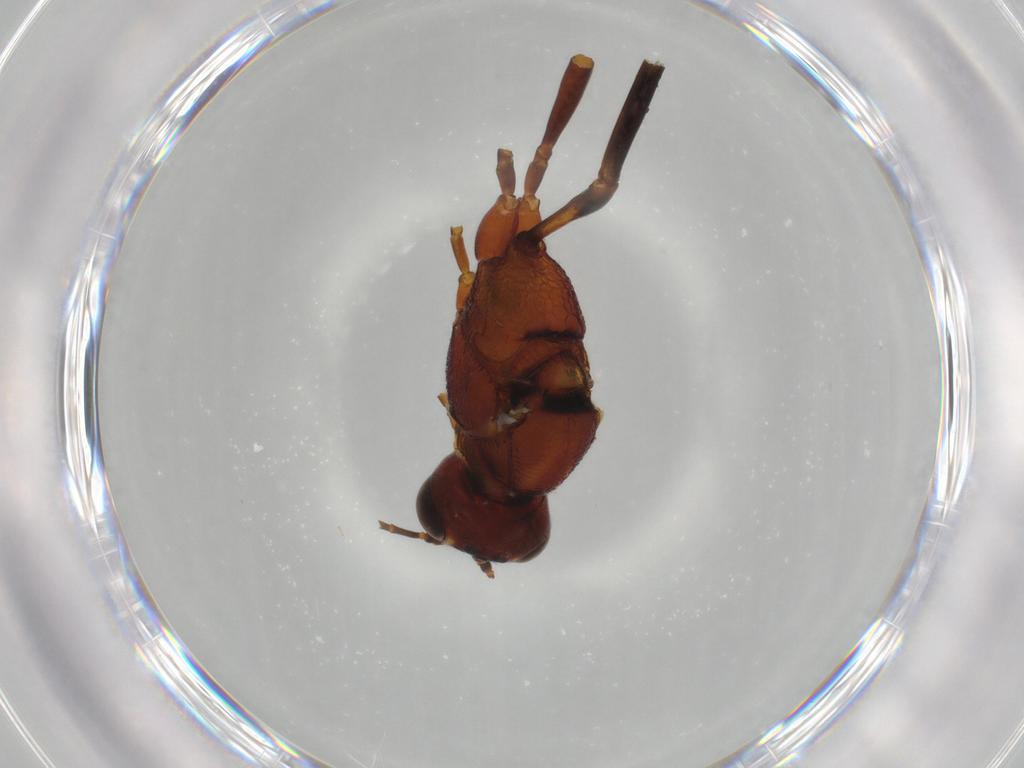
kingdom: Animalia
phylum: Arthropoda
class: Insecta
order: Hymenoptera
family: Ichneumonidae
